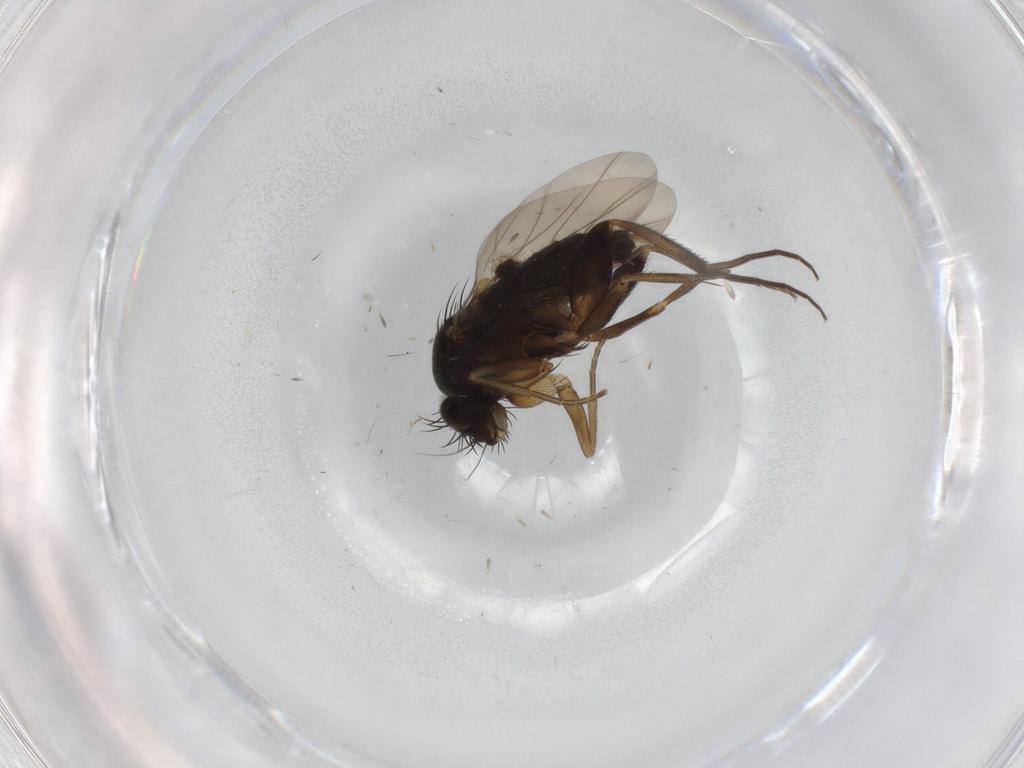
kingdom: Animalia
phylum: Arthropoda
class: Insecta
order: Diptera
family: Phoridae
